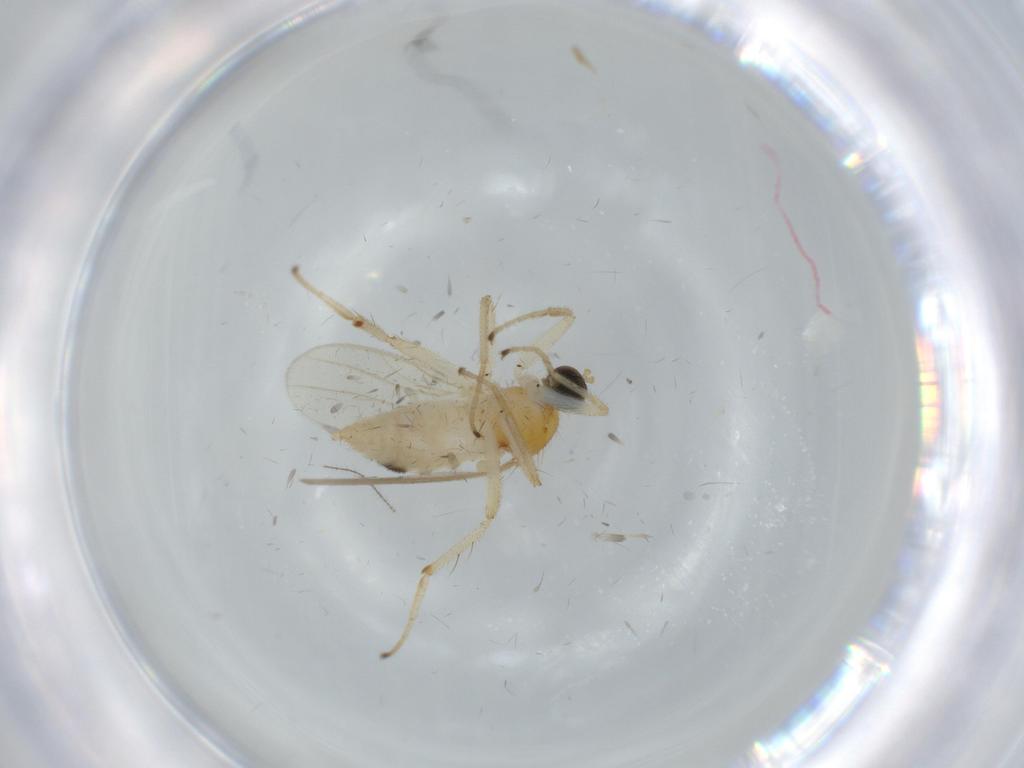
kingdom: Animalia
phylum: Arthropoda
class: Insecta
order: Diptera
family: Hybotidae
